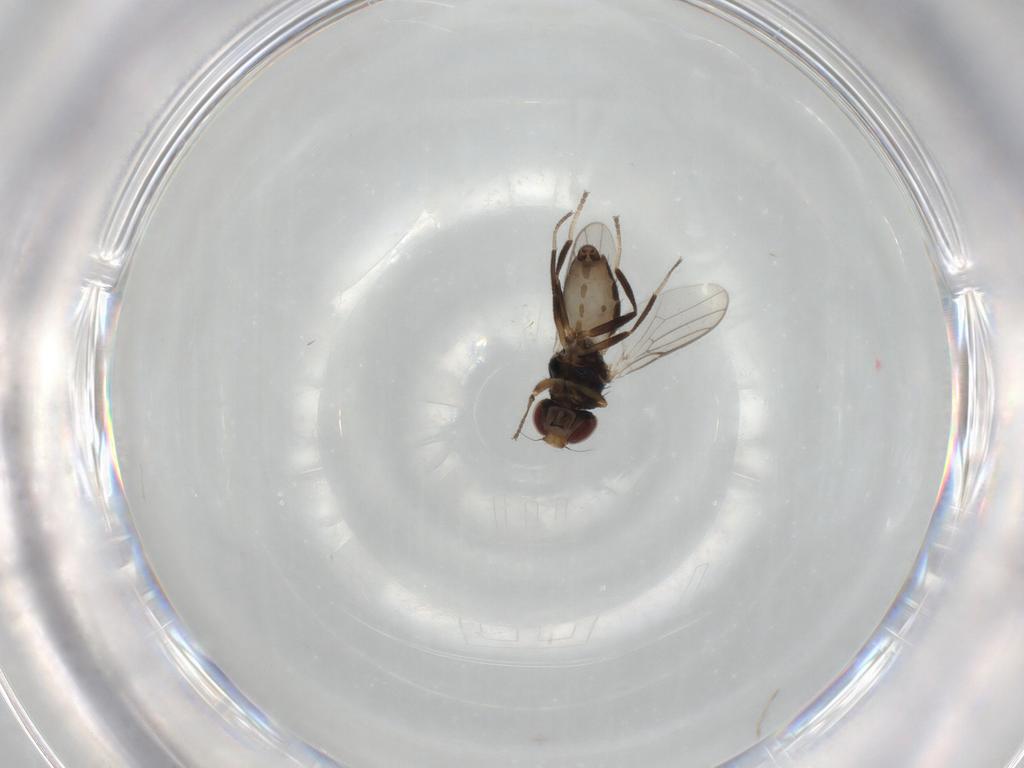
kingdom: Animalia
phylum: Arthropoda
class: Insecta
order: Diptera
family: Chloropidae
